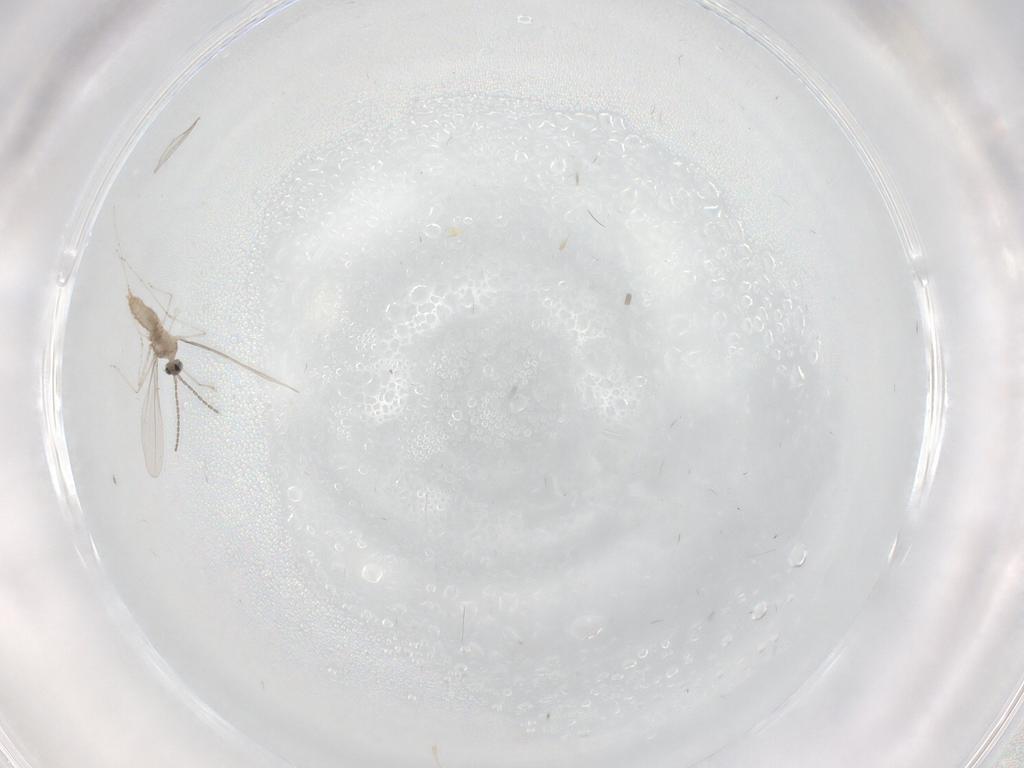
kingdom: Animalia
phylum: Arthropoda
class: Insecta
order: Diptera
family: Cecidomyiidae
